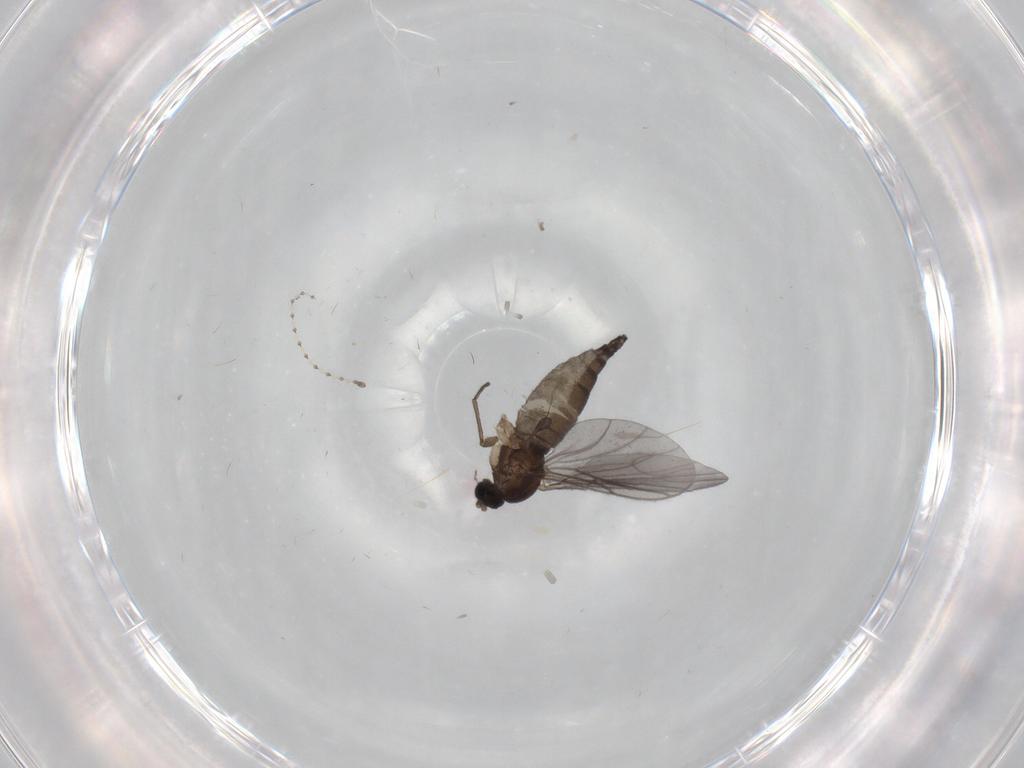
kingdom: Animalia
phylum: Arthropoda
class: Insecta
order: Diptera
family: Sciaridae
